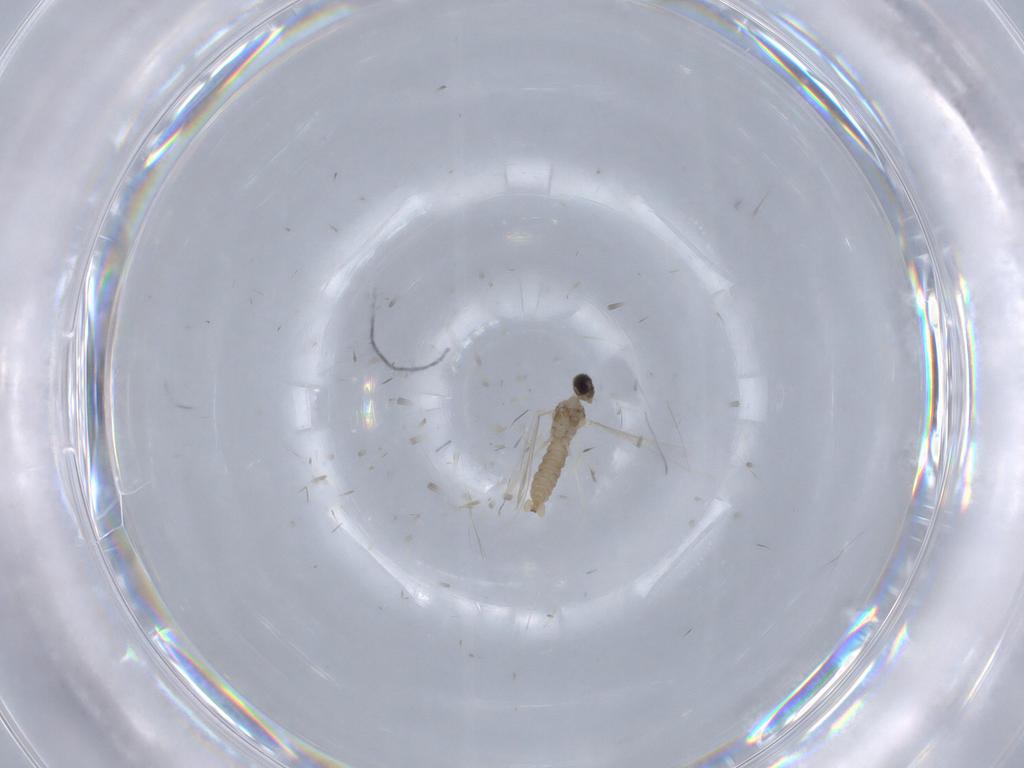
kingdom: Animalia
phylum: Arthropoda
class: Insecta
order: Diptera
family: Cecidomyiidae
